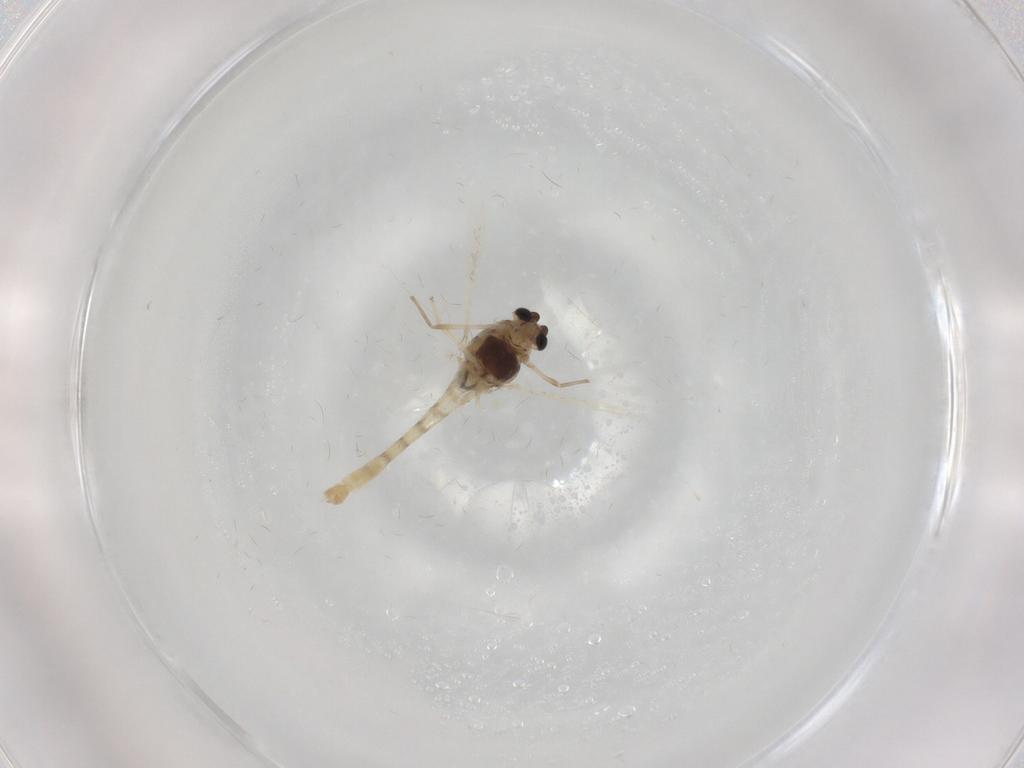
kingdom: Animalia
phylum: Arthropoda
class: Insecta
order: Diptera
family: Chironomidae
